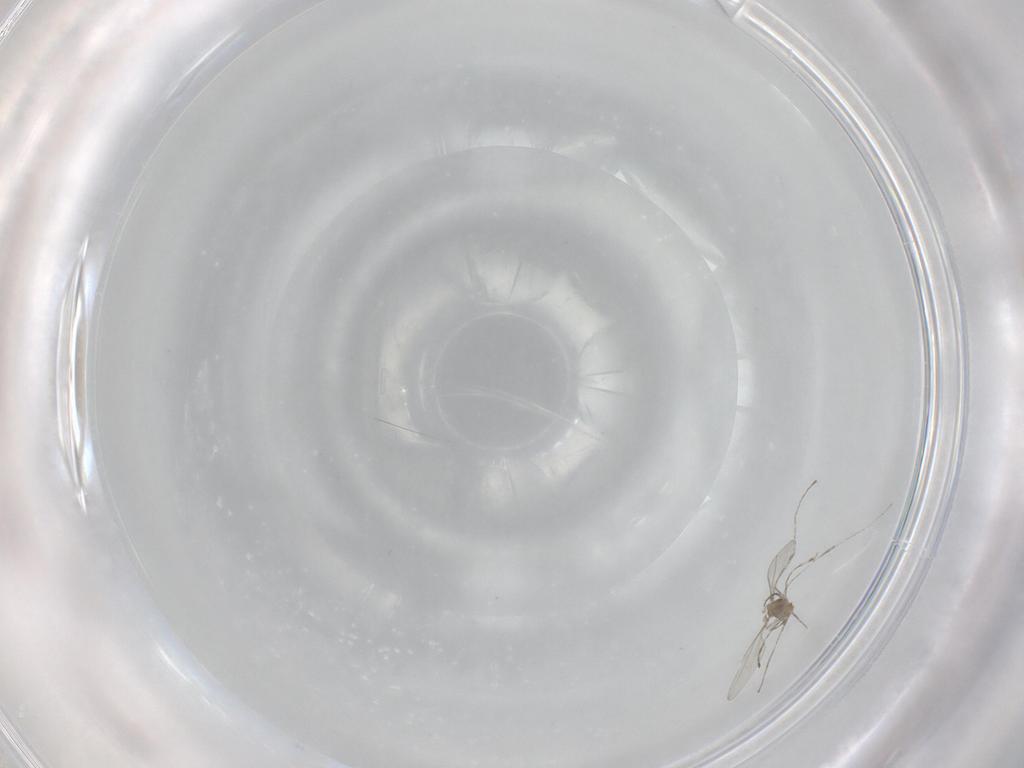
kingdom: Animalia
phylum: Arthropoda
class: Insecta
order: Diptera
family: Cecidomyiidae
